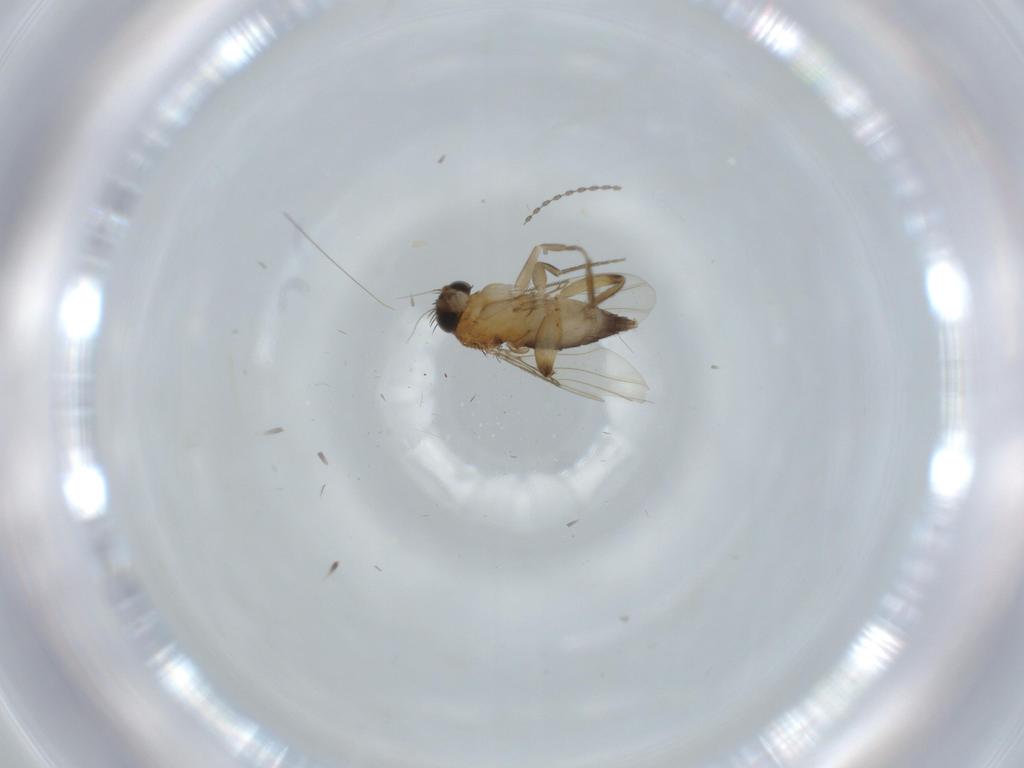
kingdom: Animalia
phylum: Arthropoda
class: Insecta
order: Diptera
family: Phoridae
